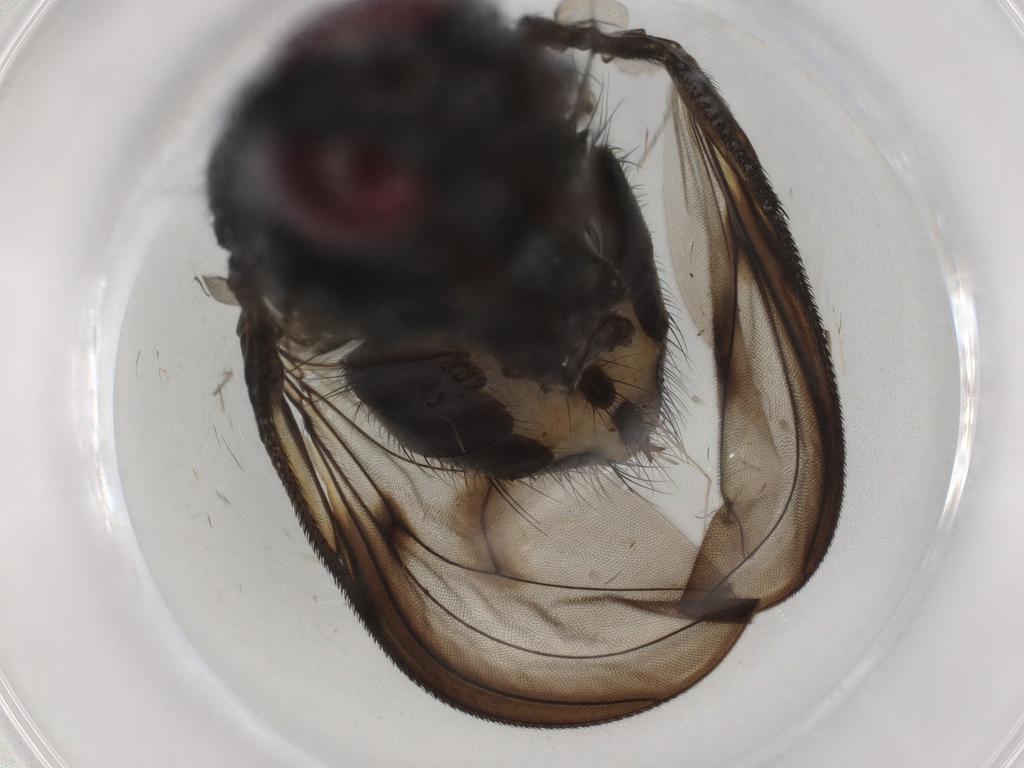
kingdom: Animalia
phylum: Arthropoda
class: Insecta
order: Diptera
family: Muscidae
